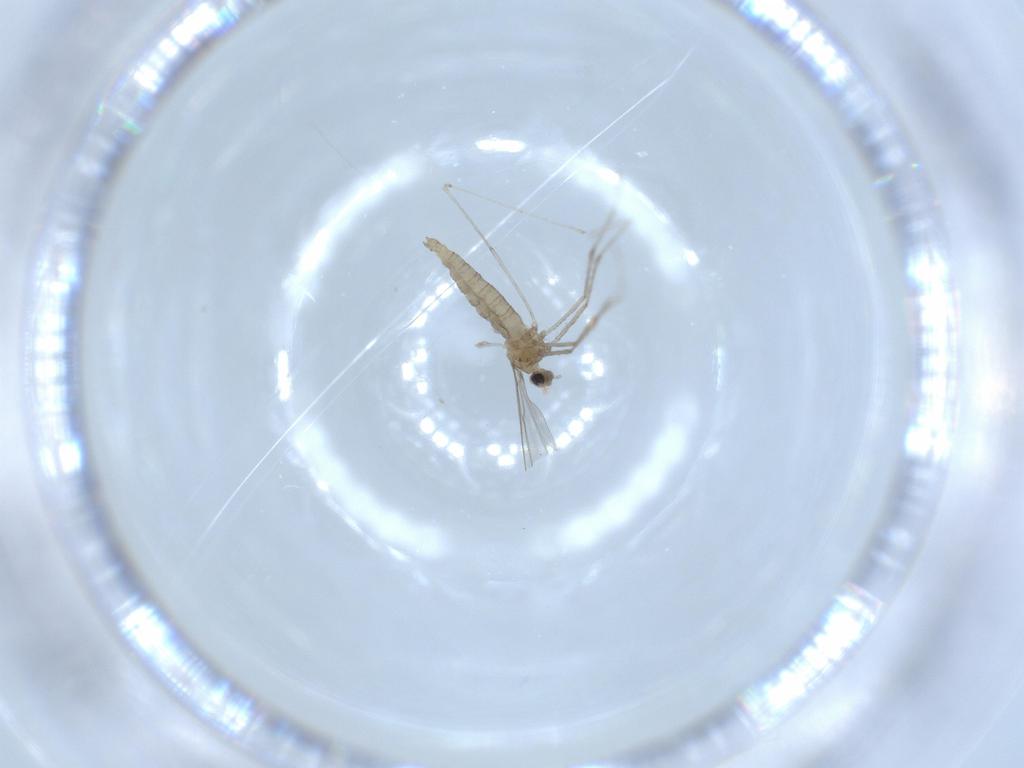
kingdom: Animalia
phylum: Arthropoda
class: Insecta
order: Diptera
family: Cecidomyiidae
